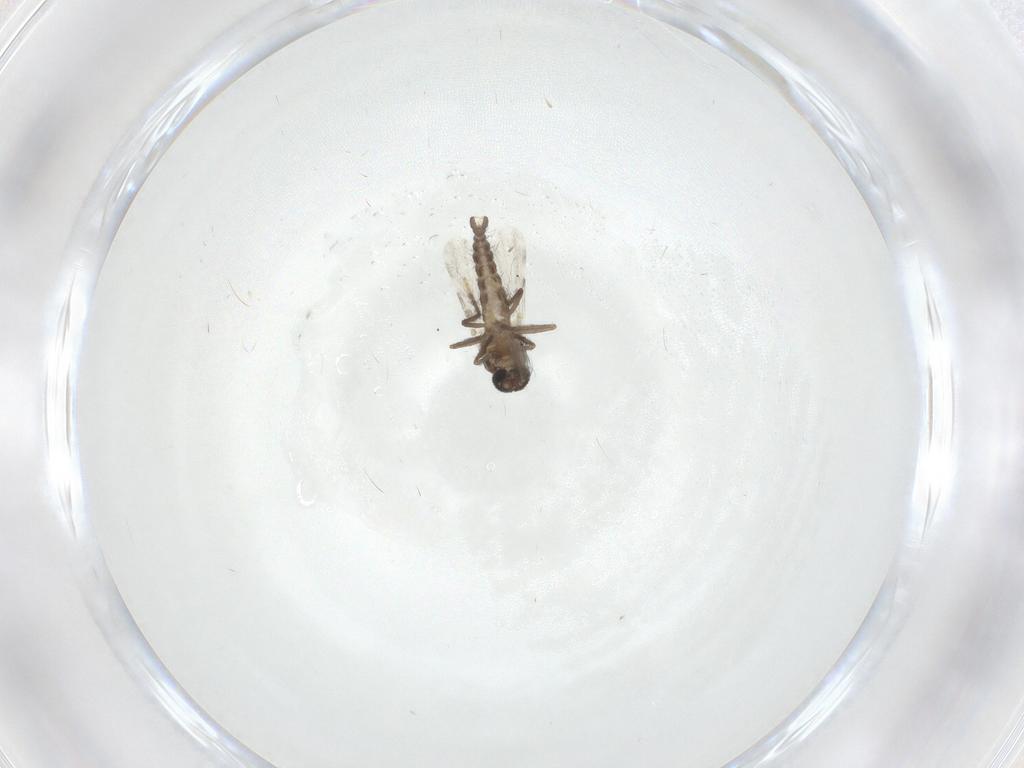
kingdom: Animalia
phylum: Arthropoda
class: Insecta
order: Diptera
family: Ceratopogonidae
